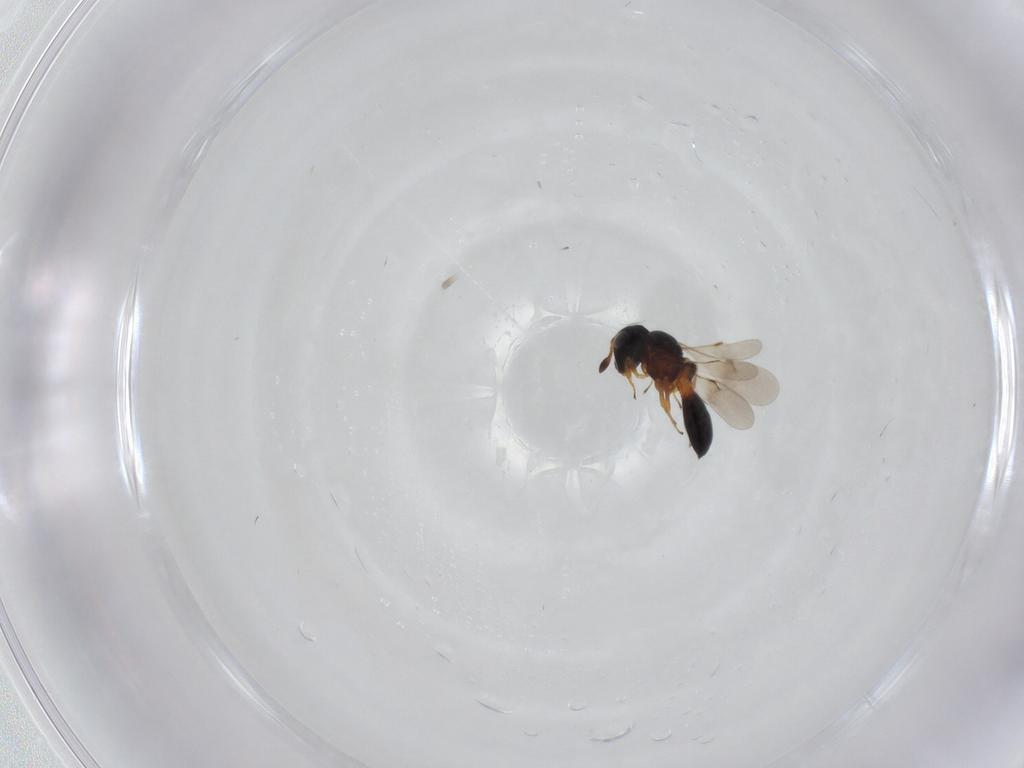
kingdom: Animalia
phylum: Arthropoda
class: Insecta
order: Hymenoptera
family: Scelionidae
